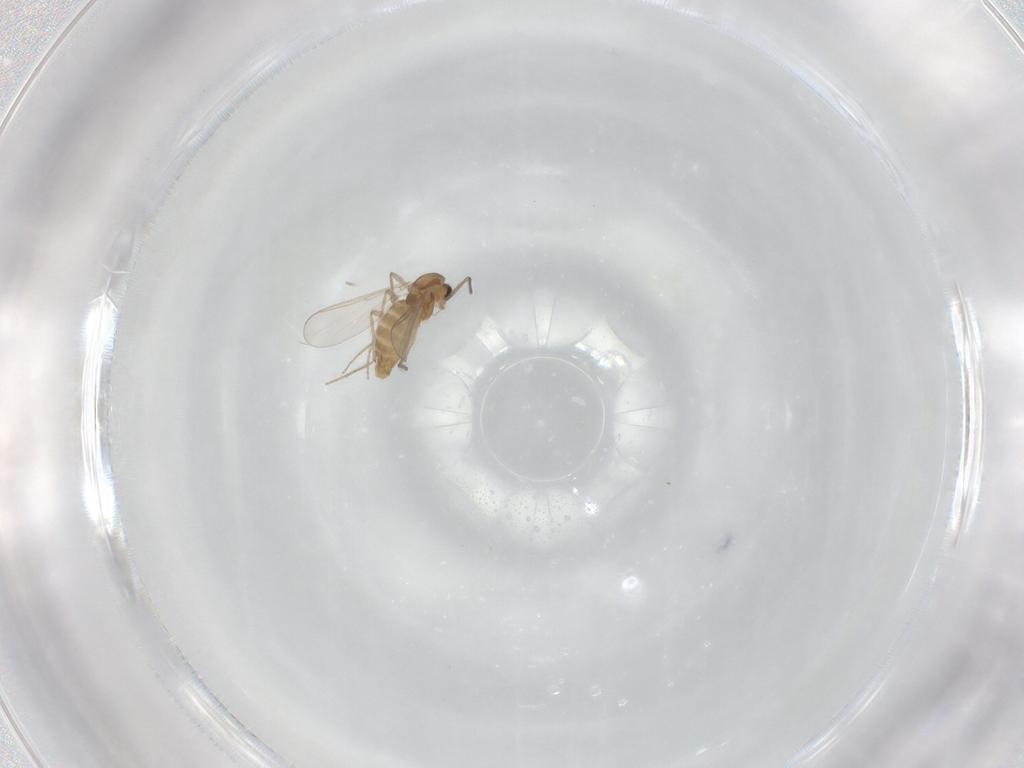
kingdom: Animalia
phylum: Arthropoda
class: Insecta
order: Diptera
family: Chironomidae
